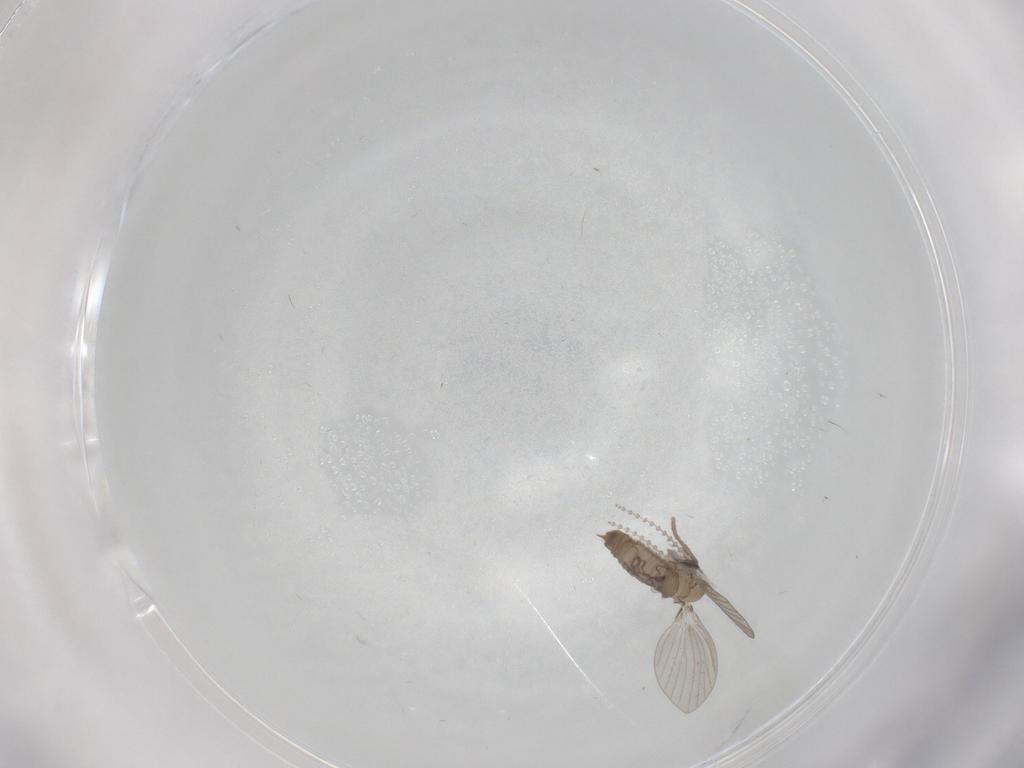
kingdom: Animalia
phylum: Arthropoda
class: Insecta
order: Diptera
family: Psychodidae
